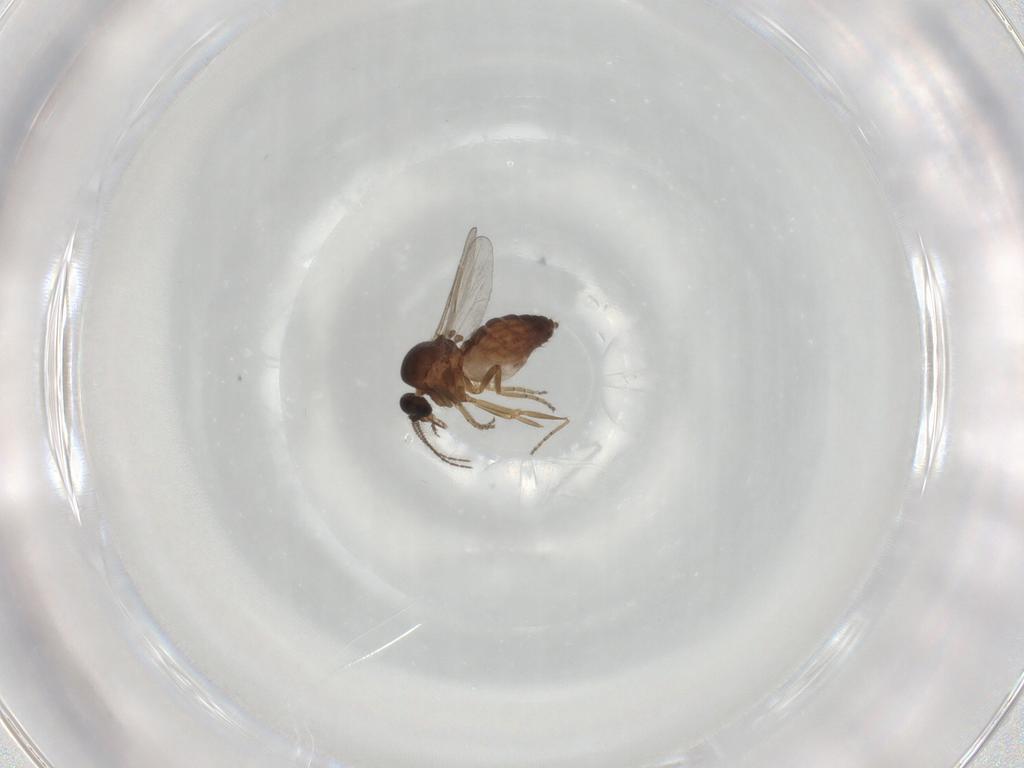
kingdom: Animalia
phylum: Arthropoda
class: Insecta
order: Diptera
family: Ceratopogonidae
